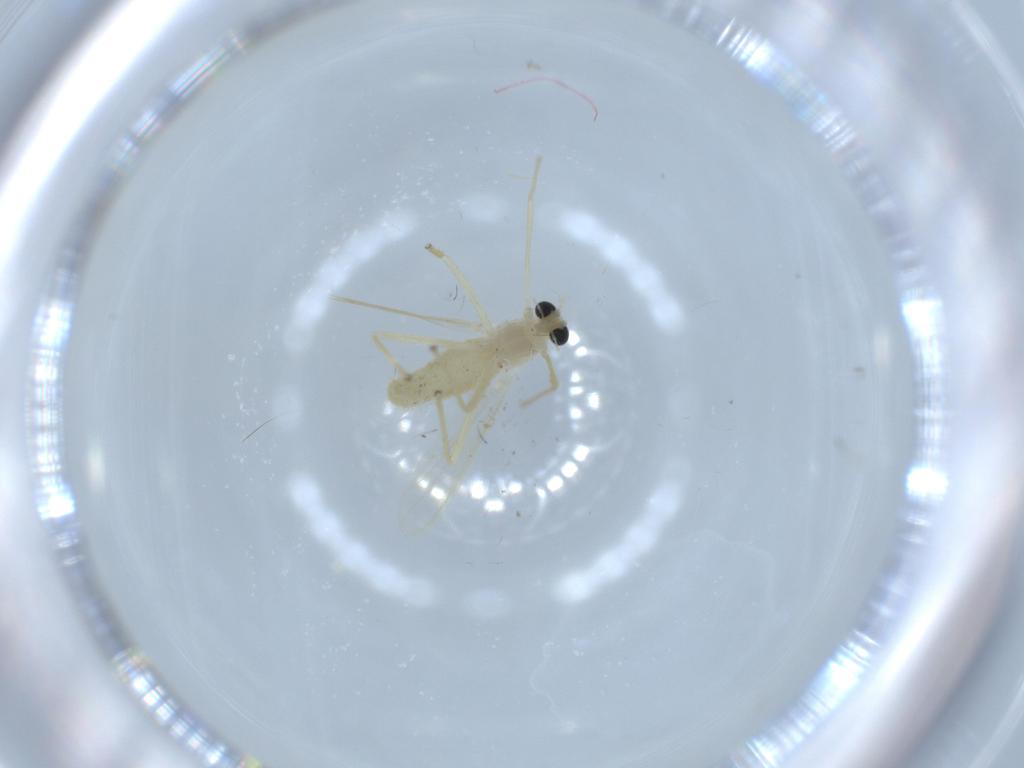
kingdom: Animalia
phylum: Arthropoda
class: Insecta
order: Diptera
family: Chironomidae
